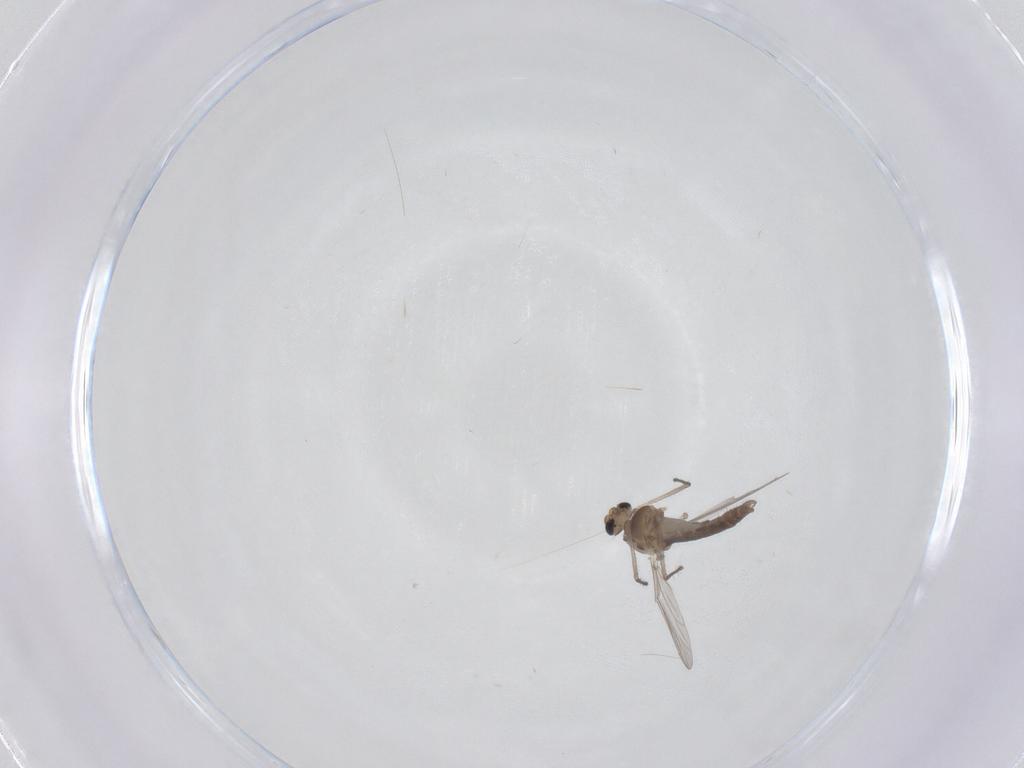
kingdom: Animalia
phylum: Arthropoda
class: Insecta
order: Diptera
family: Chironomidae
